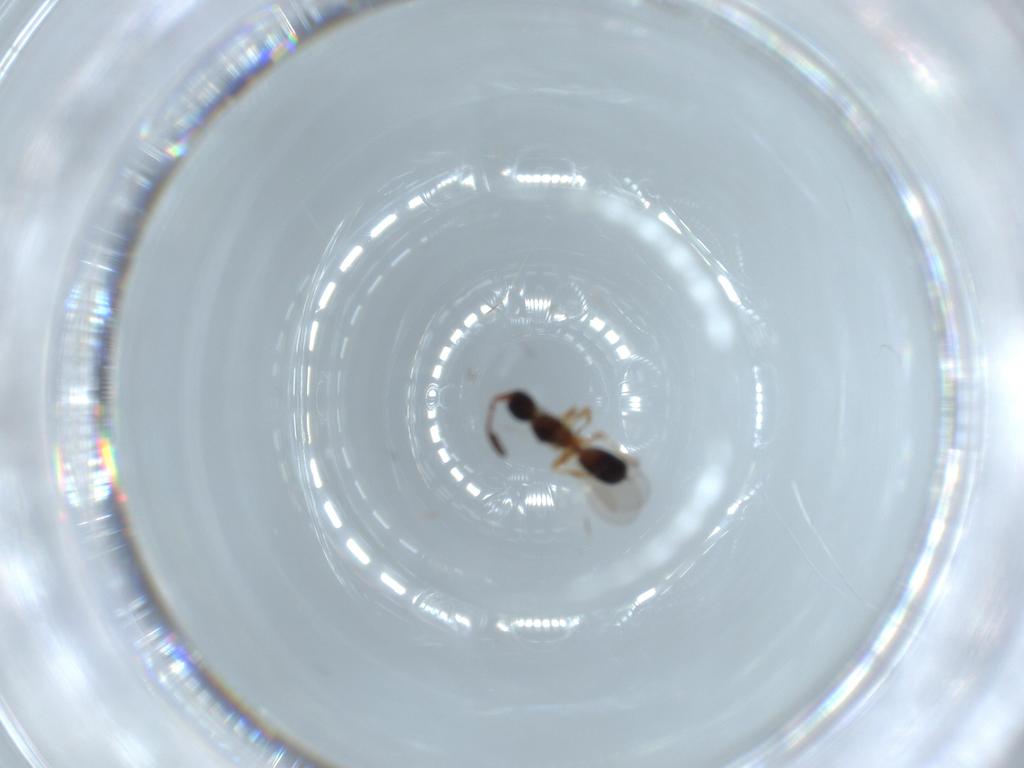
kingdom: Animalia
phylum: Arthropoda
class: Insecta
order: Hymenoptera
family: Diapriidae
